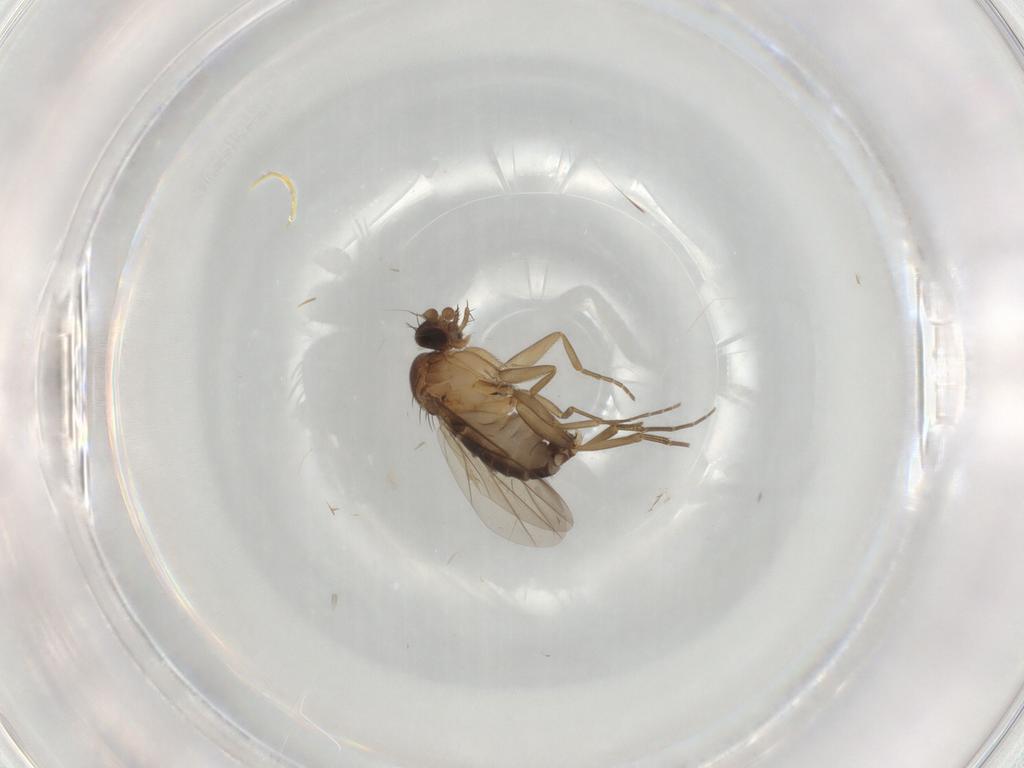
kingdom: Animalia
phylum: Arthropoda
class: Insecta
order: Diptera
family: Phoridae
